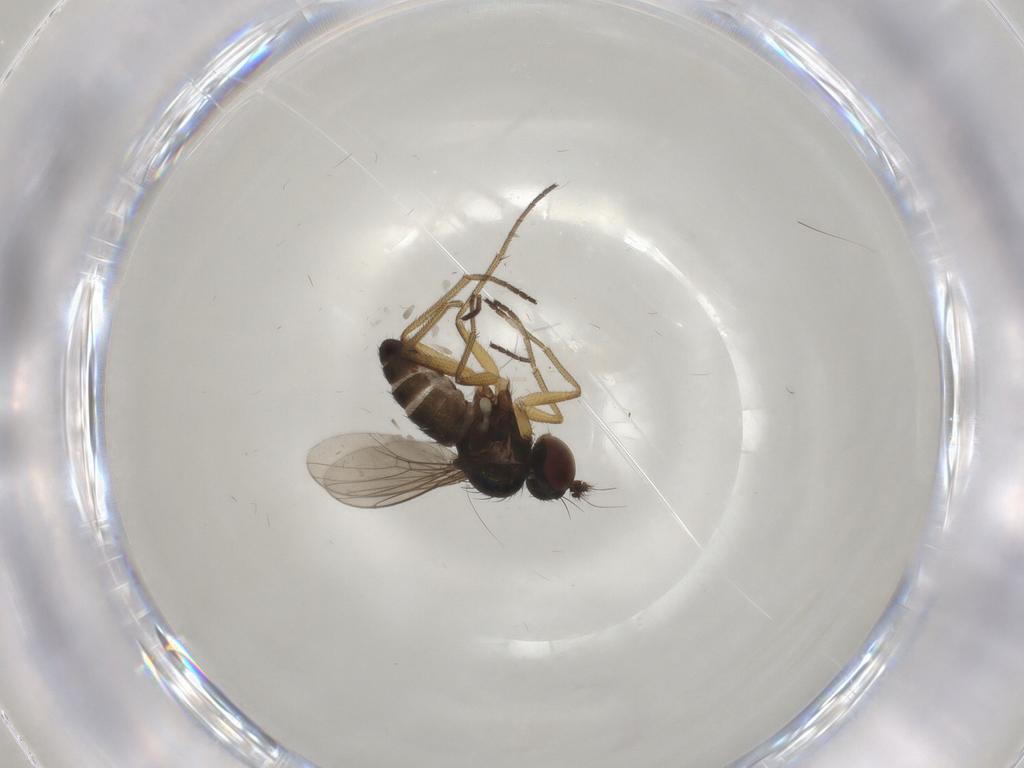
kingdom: Animalia
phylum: Arthropoda
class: Insecta
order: Diptera
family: Dolichopodidae
